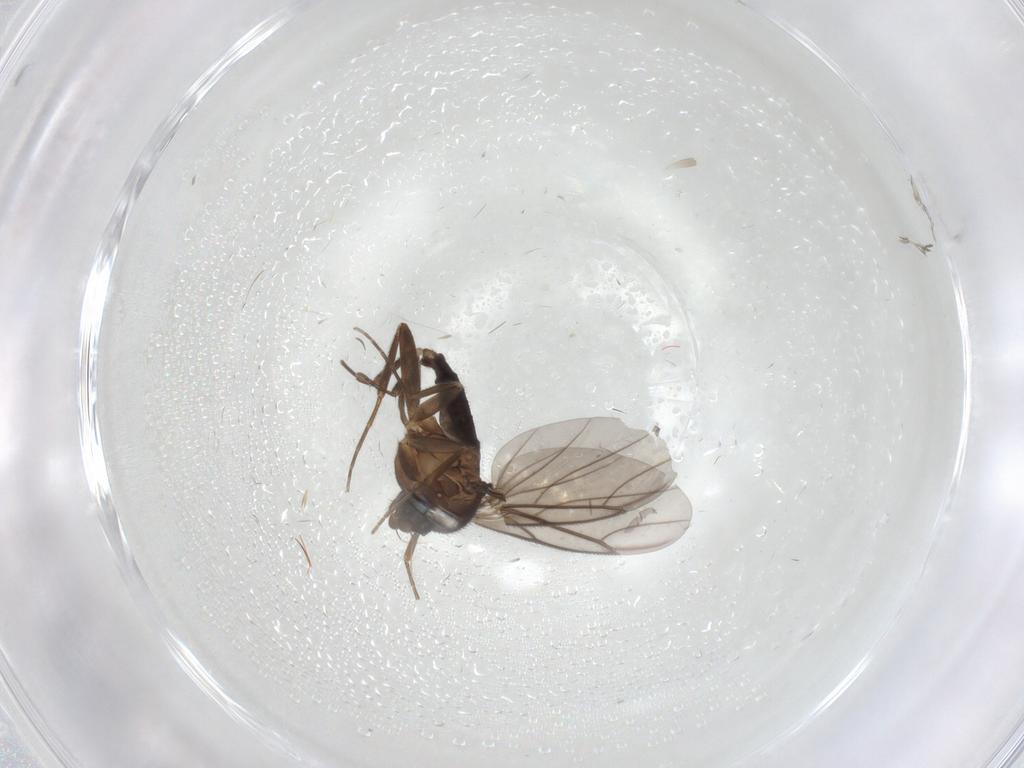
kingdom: Animalia
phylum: Arthropoda
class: Insecta
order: Diptera
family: Phoridae
